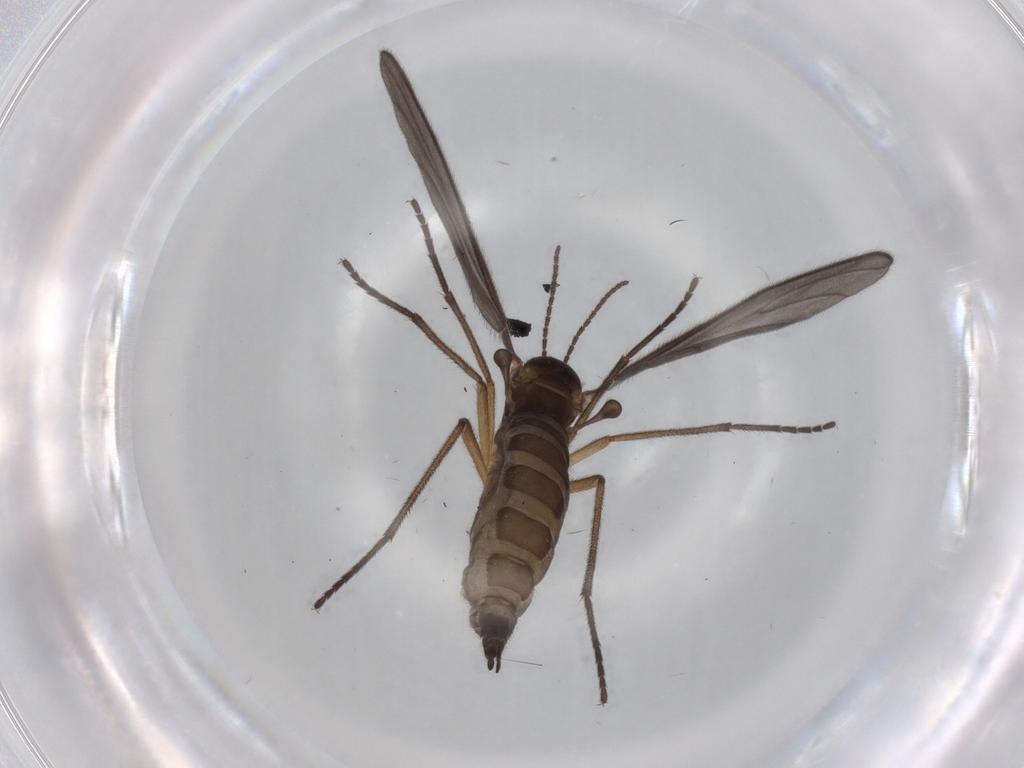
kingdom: Animalia
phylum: Arthropoda
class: Insecta
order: Diptera
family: Sciaridae
